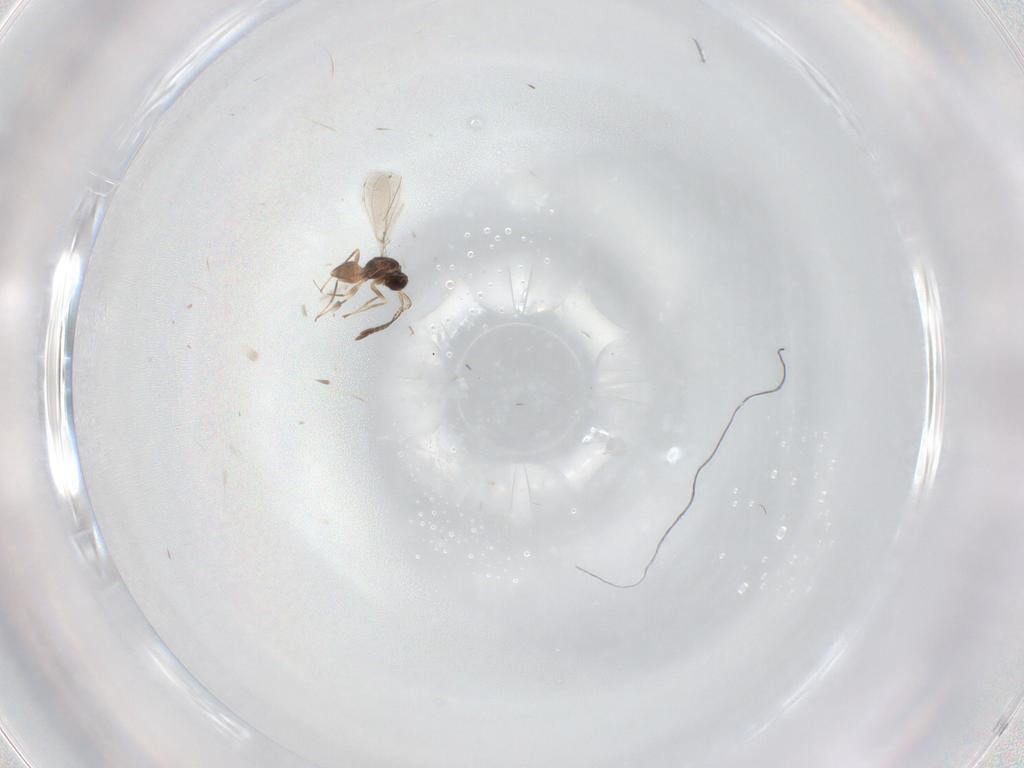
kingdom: Animalia
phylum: Arthropoda
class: Insecta
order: Hymenoptera
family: Mymaridae
